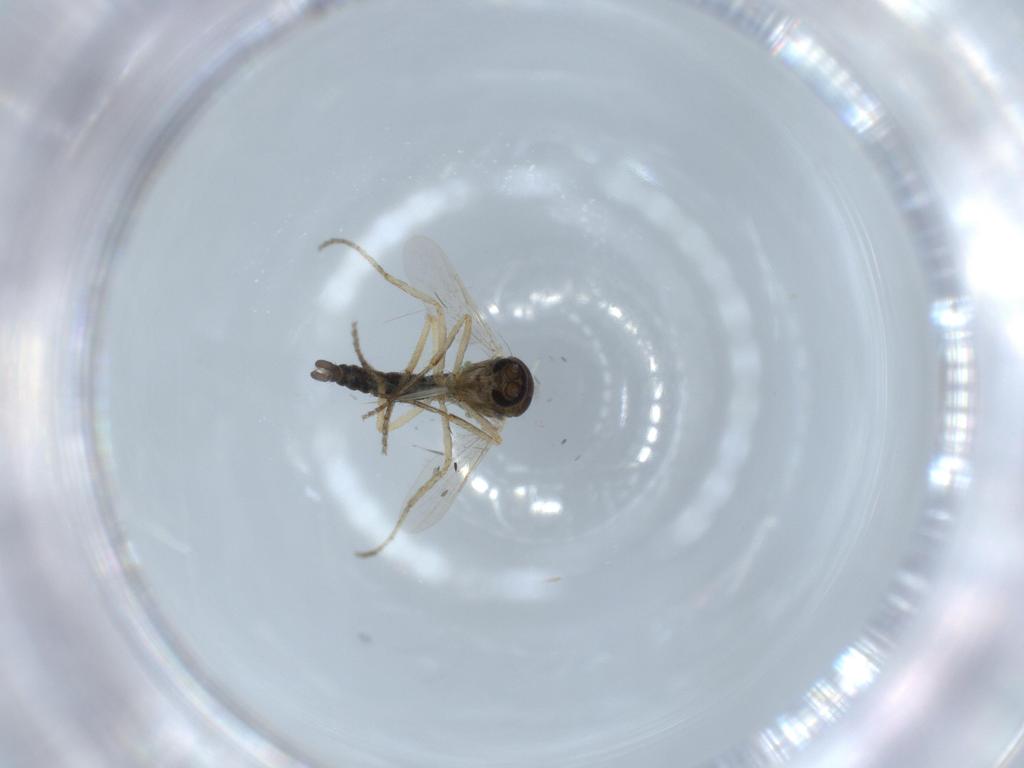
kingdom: Animalia
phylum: Arthropoda
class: Insecta
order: Diptera
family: Ceratopogonidae
